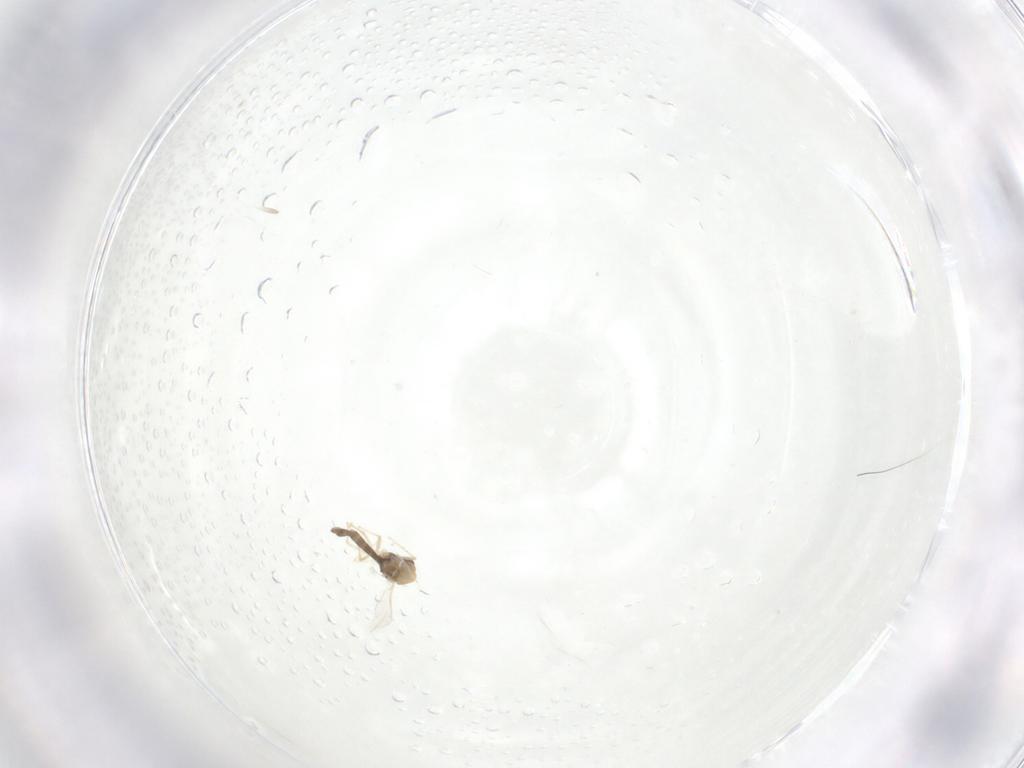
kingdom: Animalia
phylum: Arthropoda
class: Insecta
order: Diptera
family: Chironomidae
